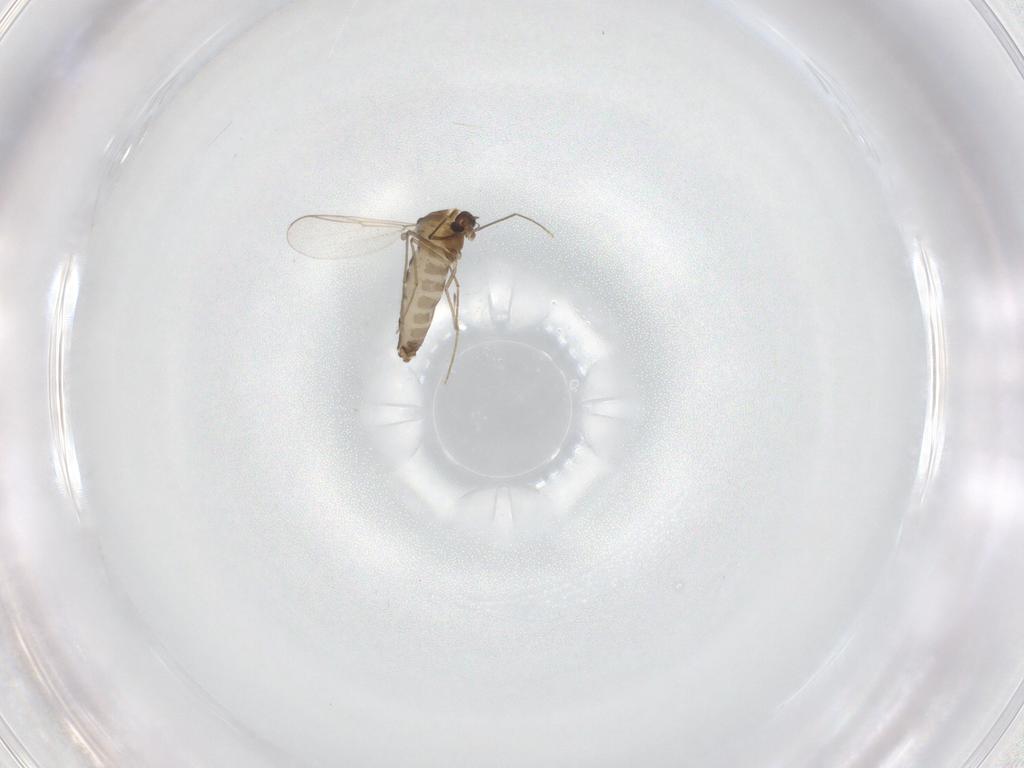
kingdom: Animalia
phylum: Arthropoda
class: Insecta
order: Diptera
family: Chironomidae
